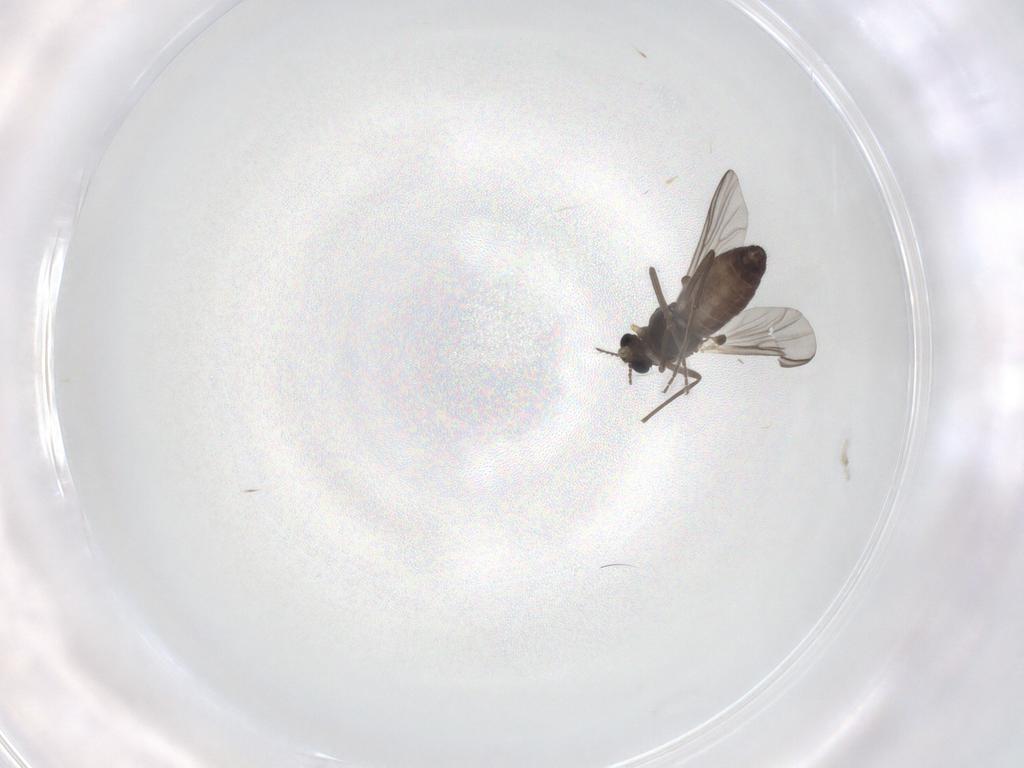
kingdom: Animalia
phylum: Arthropoda
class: Insecta
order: Diptera
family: Chironomidae
